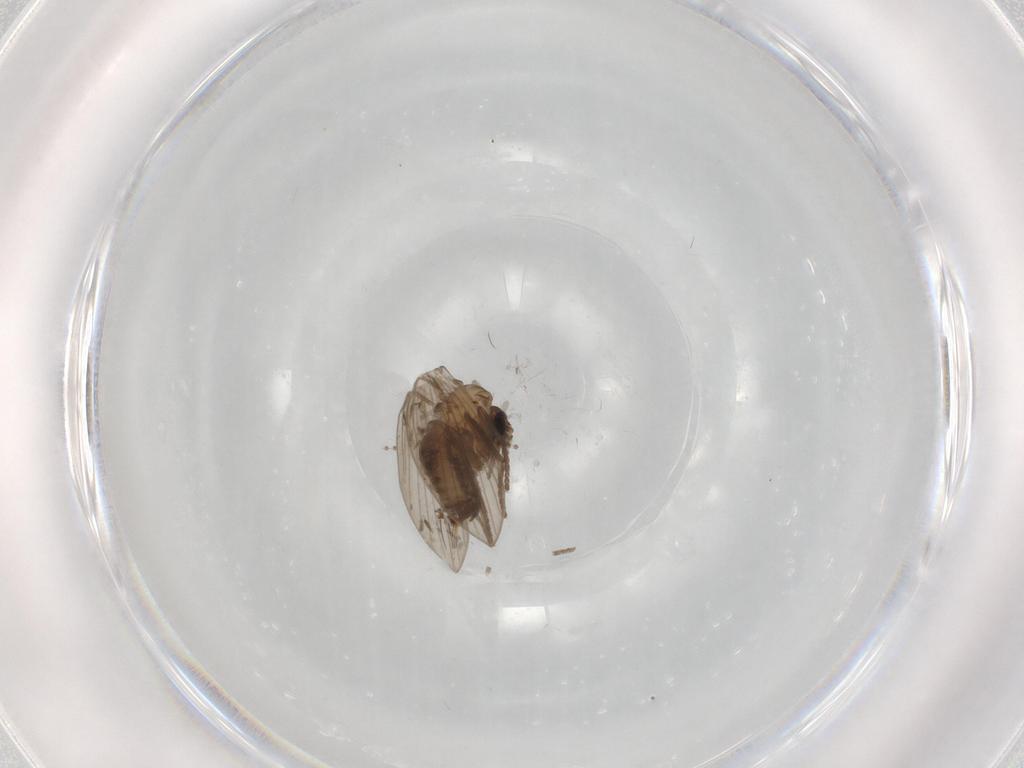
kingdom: Animalia
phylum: Arthropoda
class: Insecta
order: Diptera
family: Psychodidae
